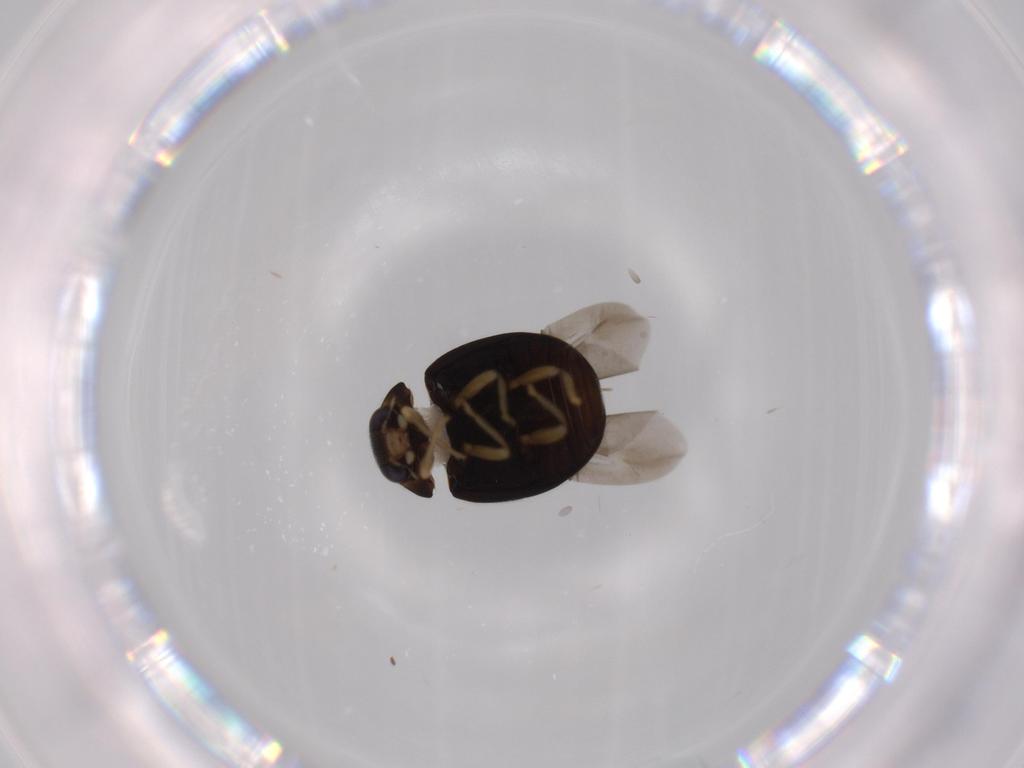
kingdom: Animalia
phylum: Arthropoda
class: Insecta
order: Coleoptera
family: Coccinellidae
